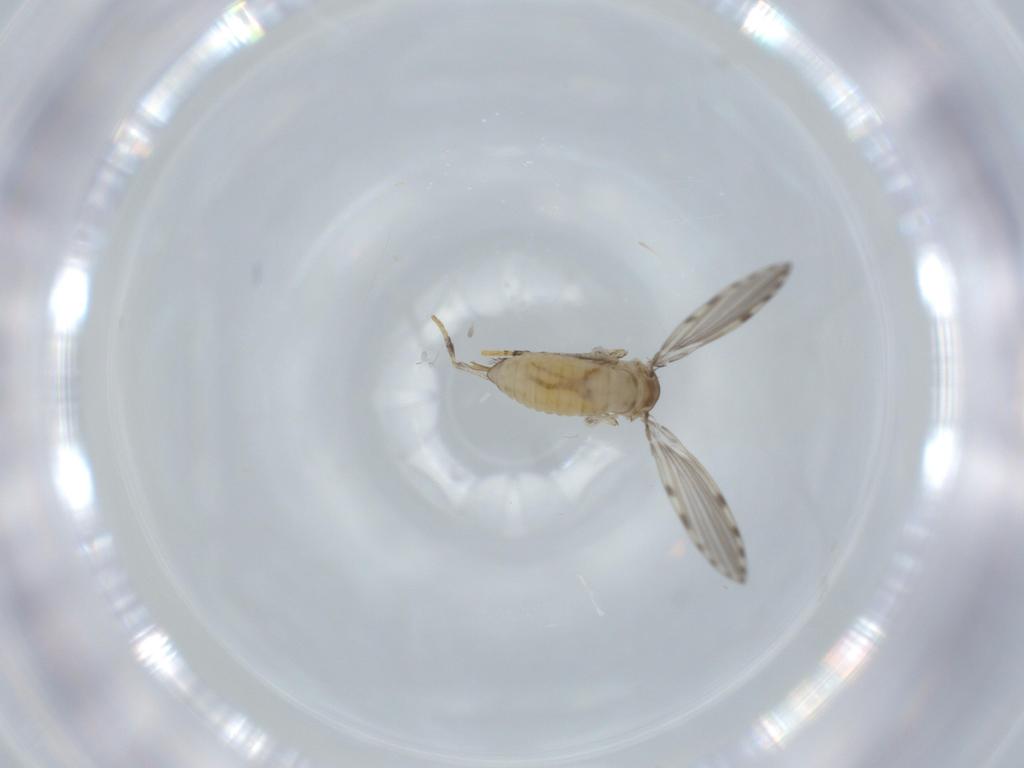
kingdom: Animalia
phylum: Arthropoda
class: Insecta
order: Diptera
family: Psychodidae
